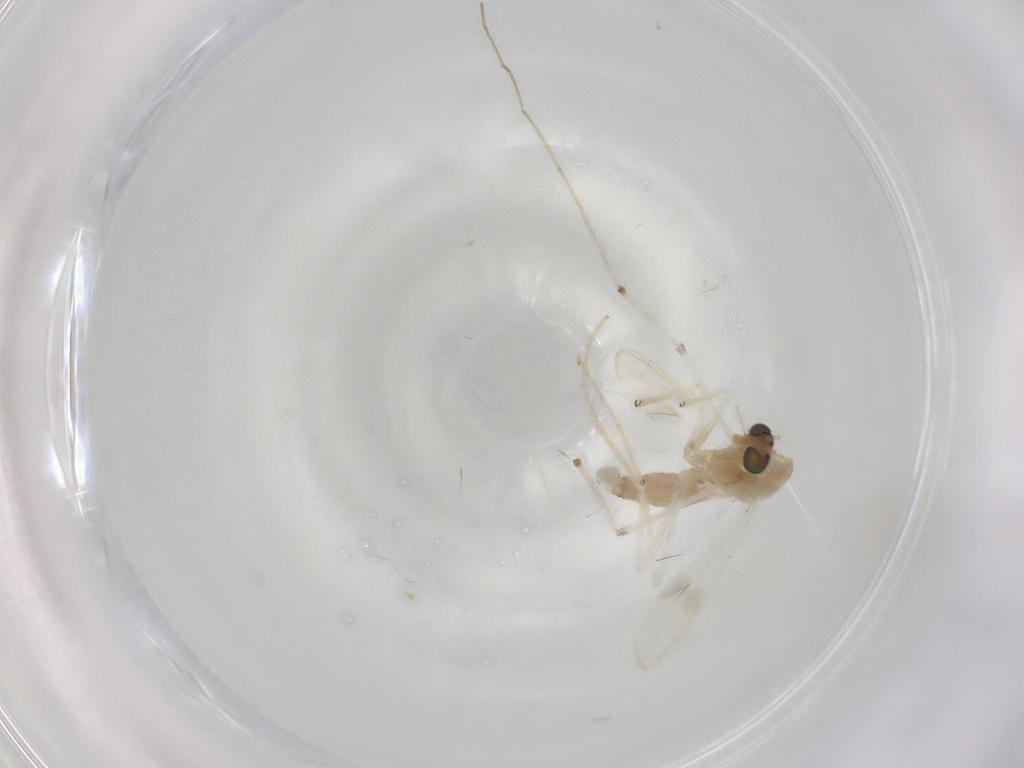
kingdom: Animalia
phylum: Arthropoda
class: Insecta
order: Diptera
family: Chironomidae
